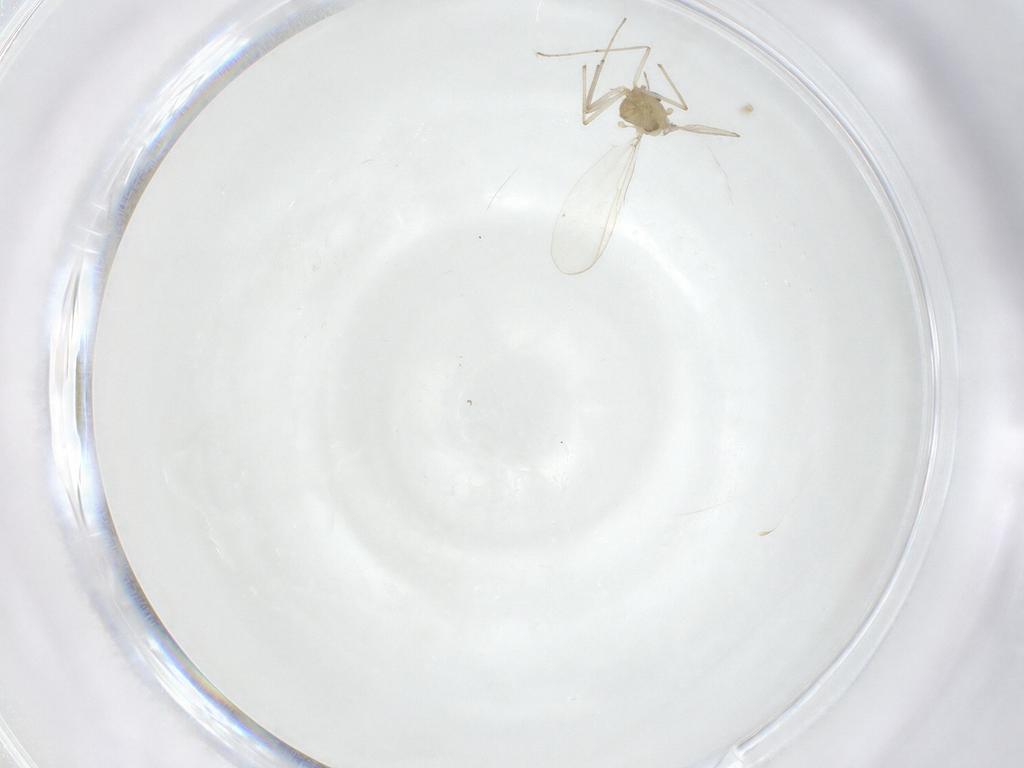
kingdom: Animalia
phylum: Arthropoda
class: Insecta
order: Diptera
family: Chironomidae
